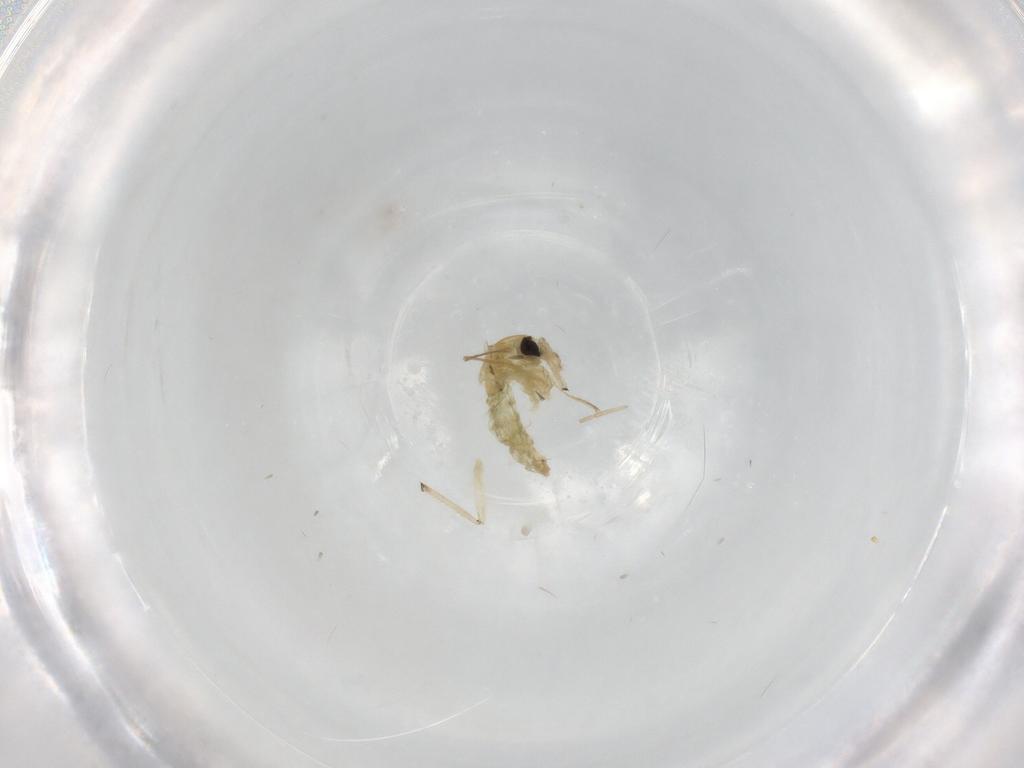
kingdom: Animalia
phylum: Arthropoda
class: Insecta
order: Diptera
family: Chironomidae
